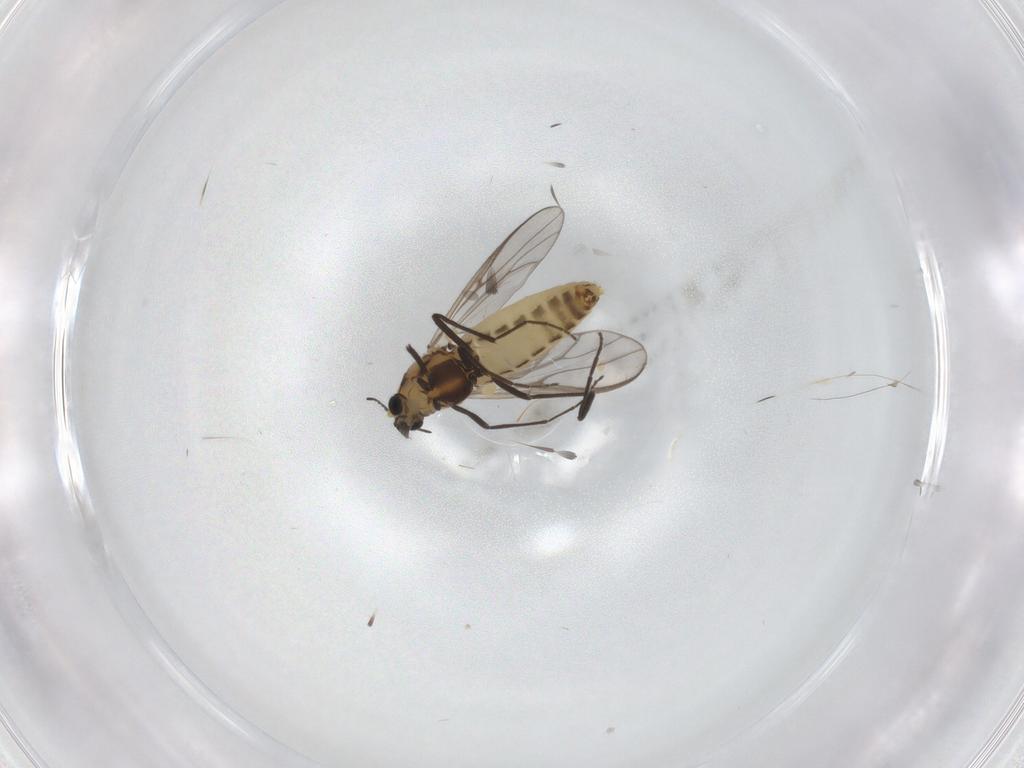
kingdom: Animalia
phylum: Arthropoda
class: Insecta
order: Diptera
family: Chironomidae
